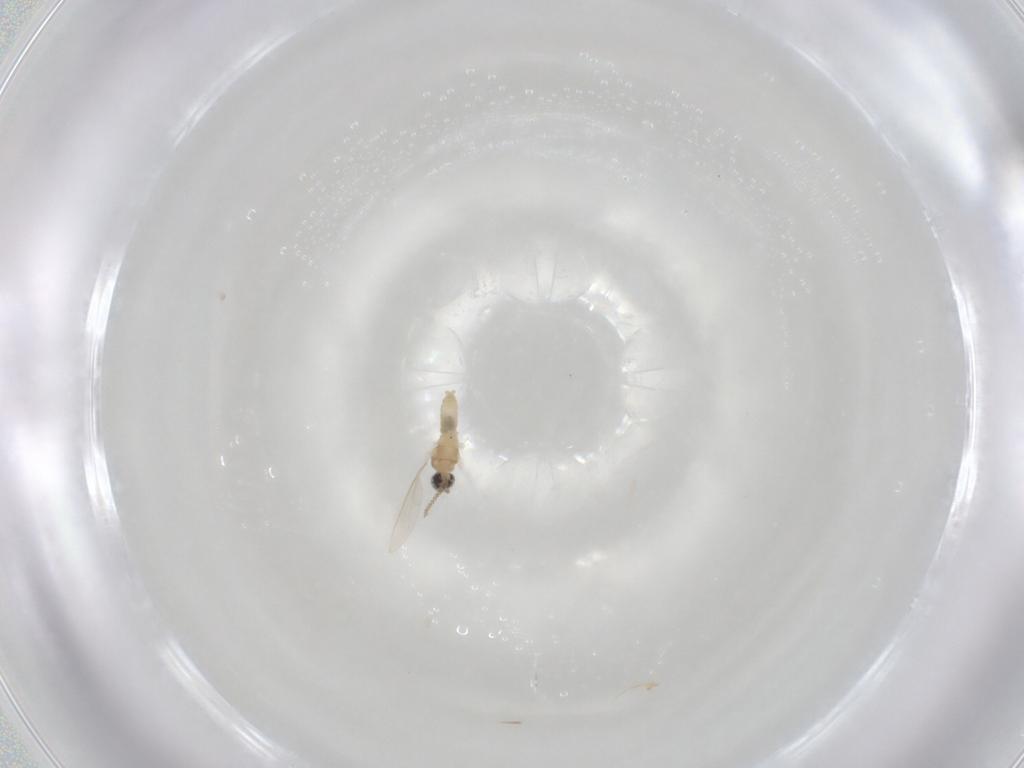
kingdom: Animalia
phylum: Arthropoda
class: Insecta
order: Diptera
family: Cecidomyiidae
